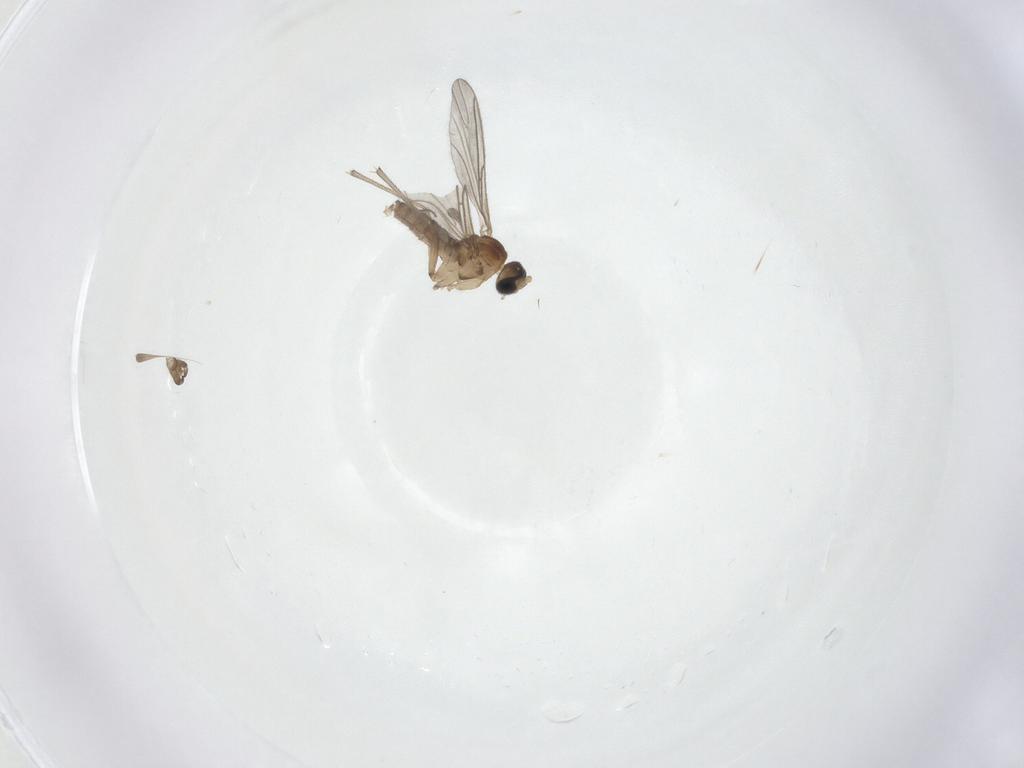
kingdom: Animalia
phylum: Arthropoda
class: Insecta
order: Diptera
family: Sciaridae
